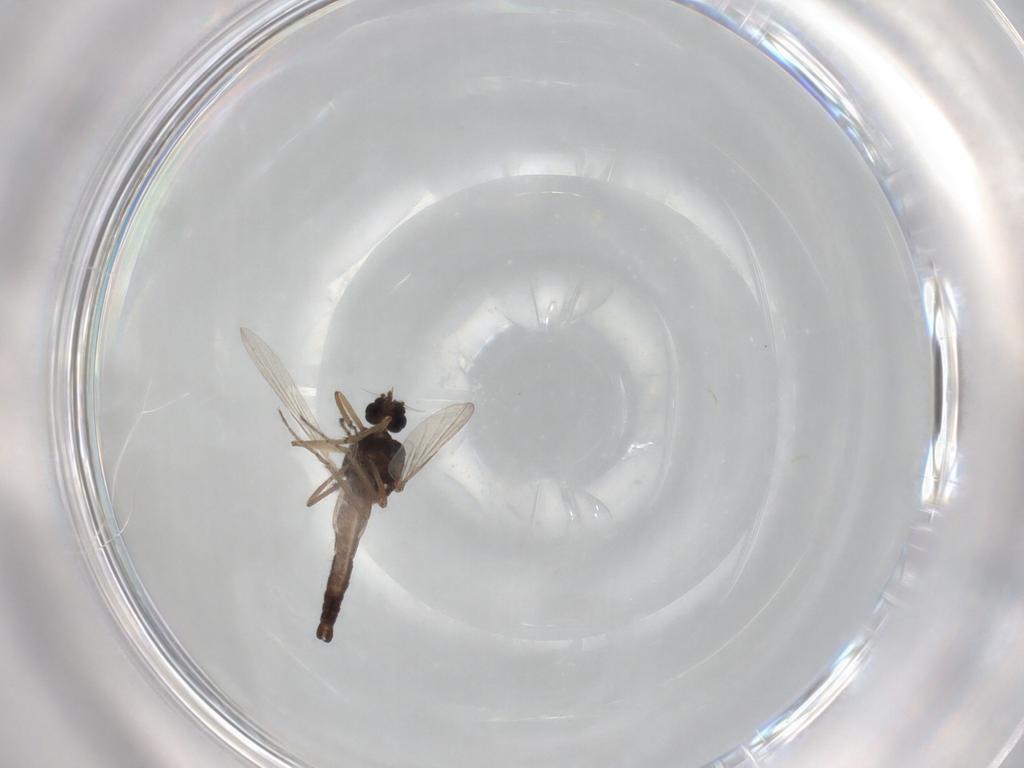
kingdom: Animalia
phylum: Arthropoda
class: Insecta
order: Diptera
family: Ceratopogonidae
